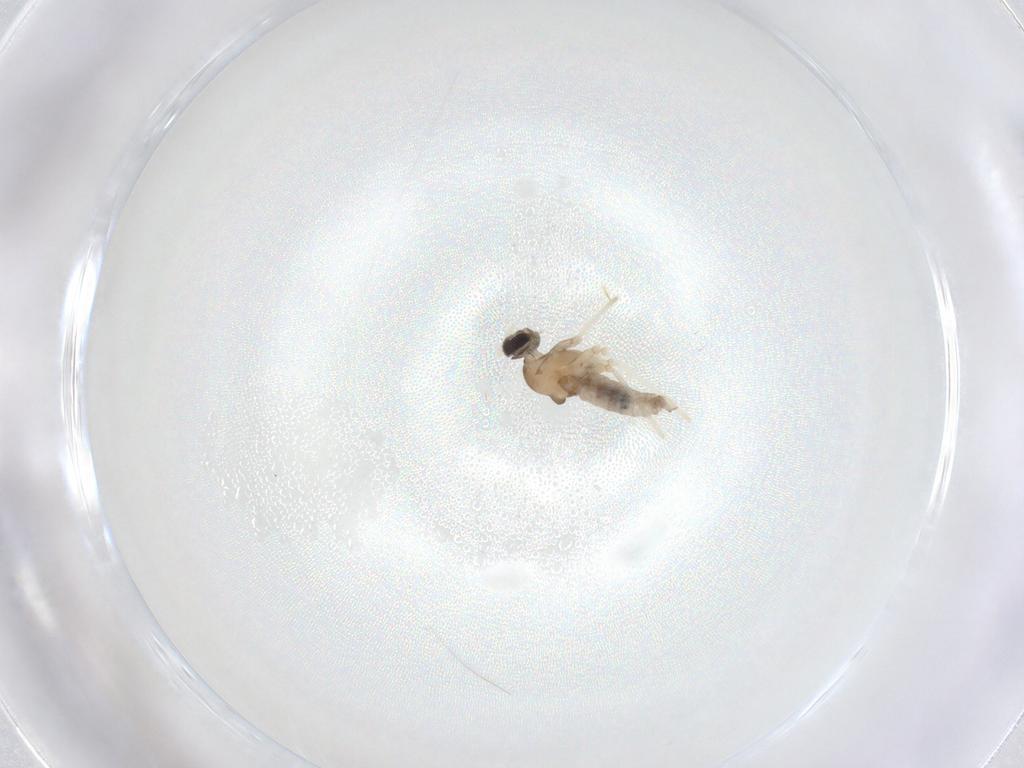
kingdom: Animalia
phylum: Arthropoda
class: Insecta
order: Diptera
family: Cecidomyiidae
